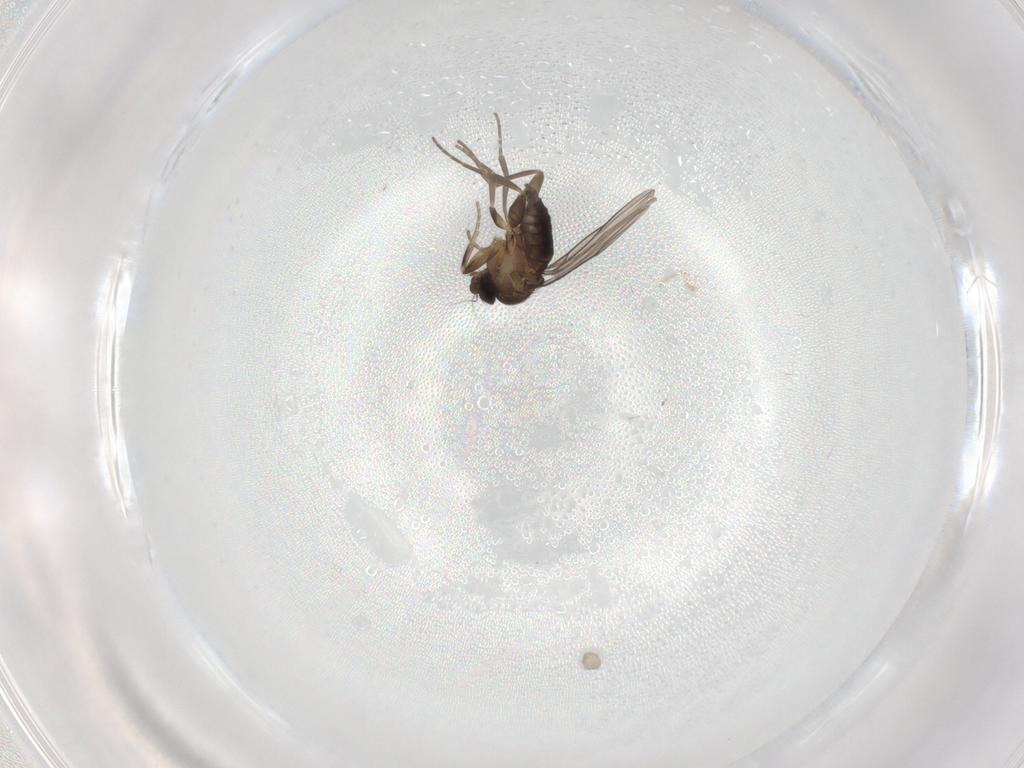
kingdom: Animalia
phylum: Arthropoda
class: Insecta
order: Diptera
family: Phoridae
